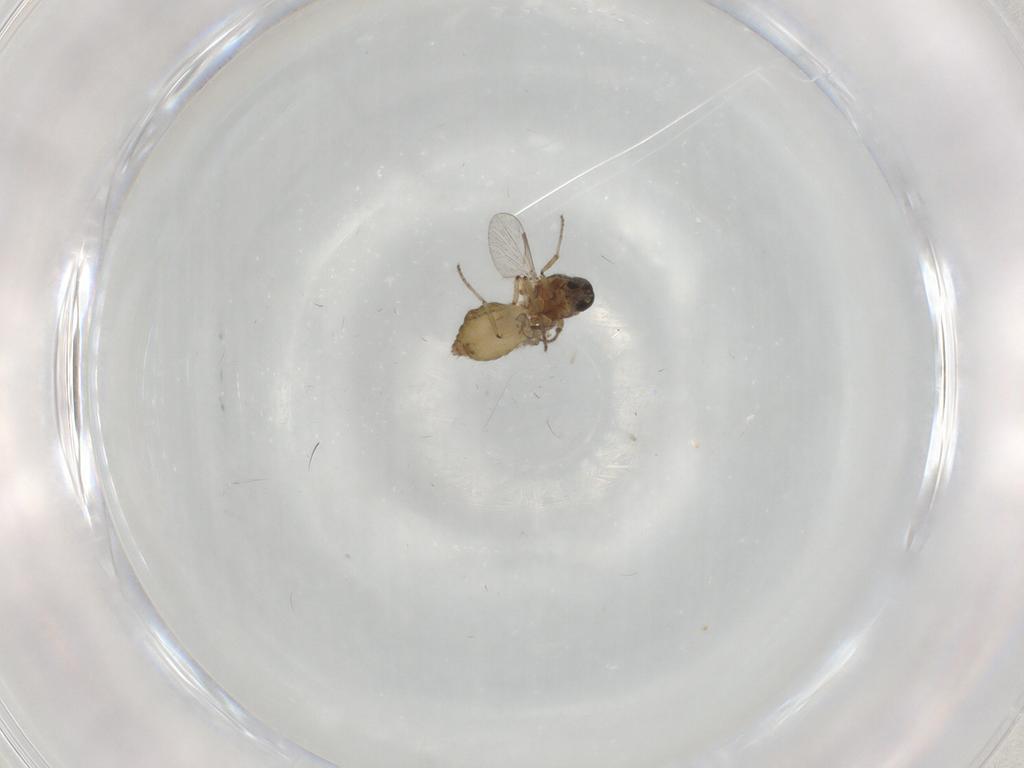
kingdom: Animalia
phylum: Arthropoda
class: Insecta
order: Diptera
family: Ceratopogonidae
